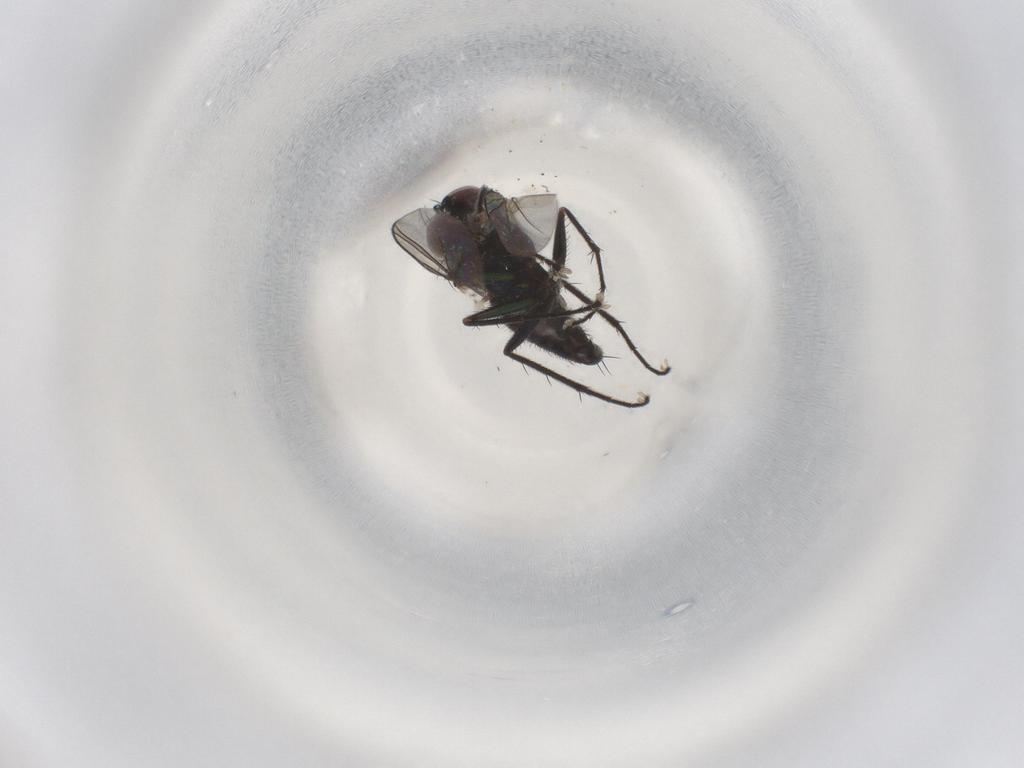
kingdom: Animalia
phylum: Arthropoda
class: Insecta
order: Diptera
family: Dolichopodidae
